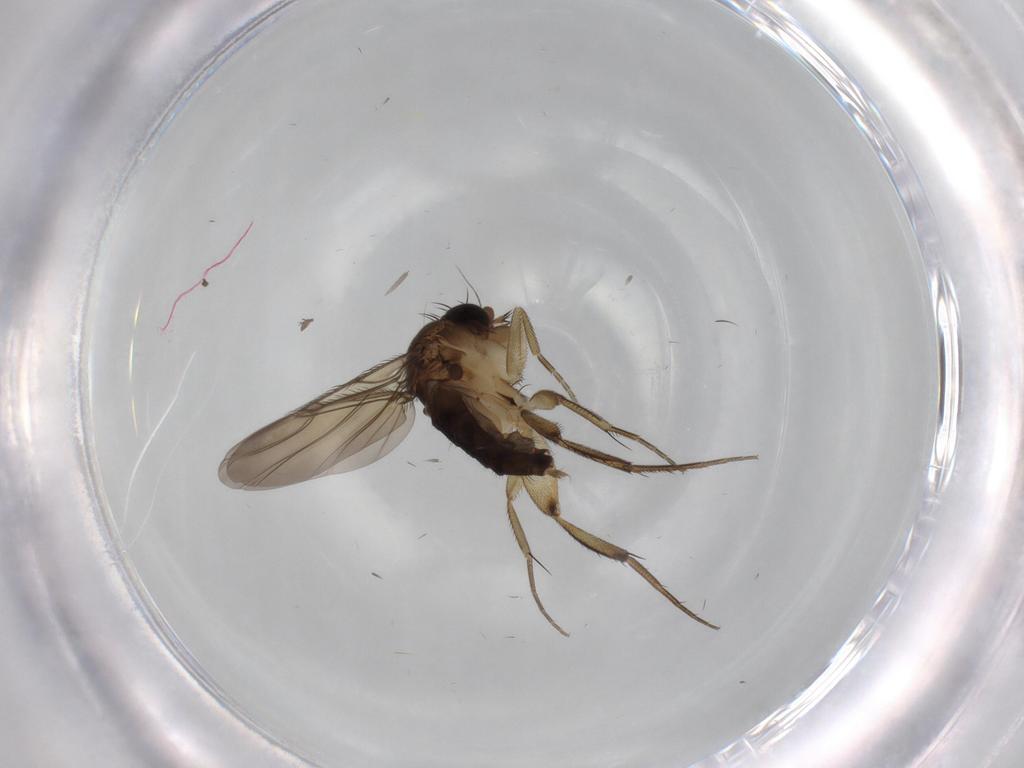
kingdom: Animalia
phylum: Arthropoda
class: Insecta
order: Diptera
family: Phoridae
